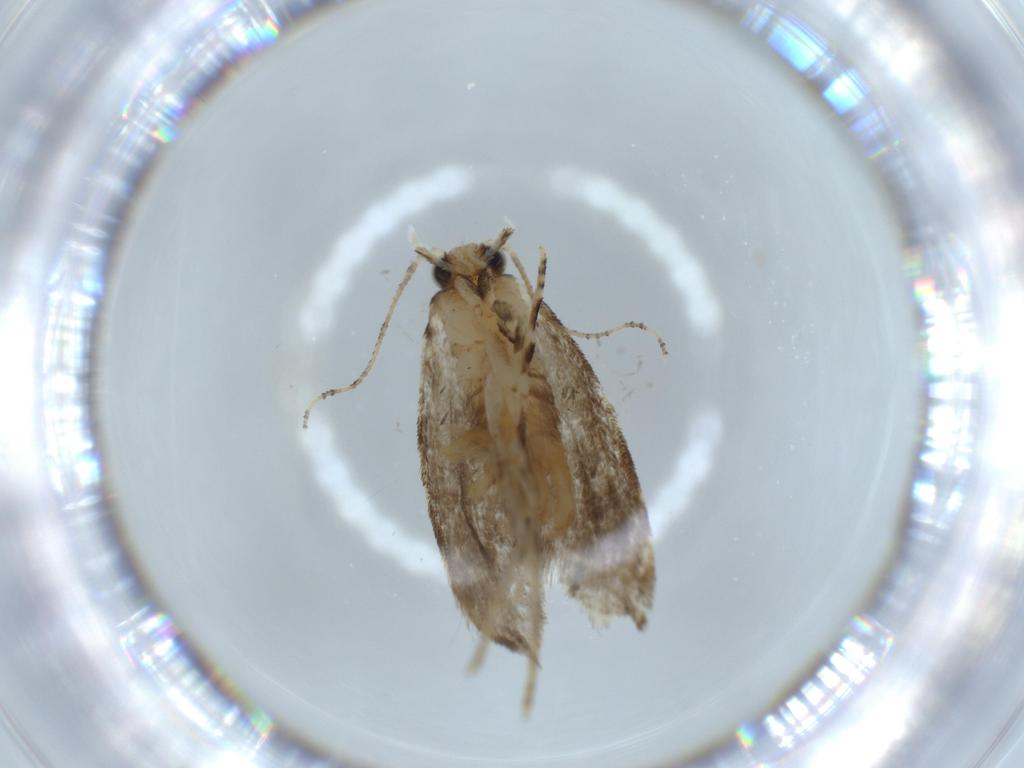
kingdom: Animalia
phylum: Arthropoda
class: Insecta
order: Lepidoptera
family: Tineidae
